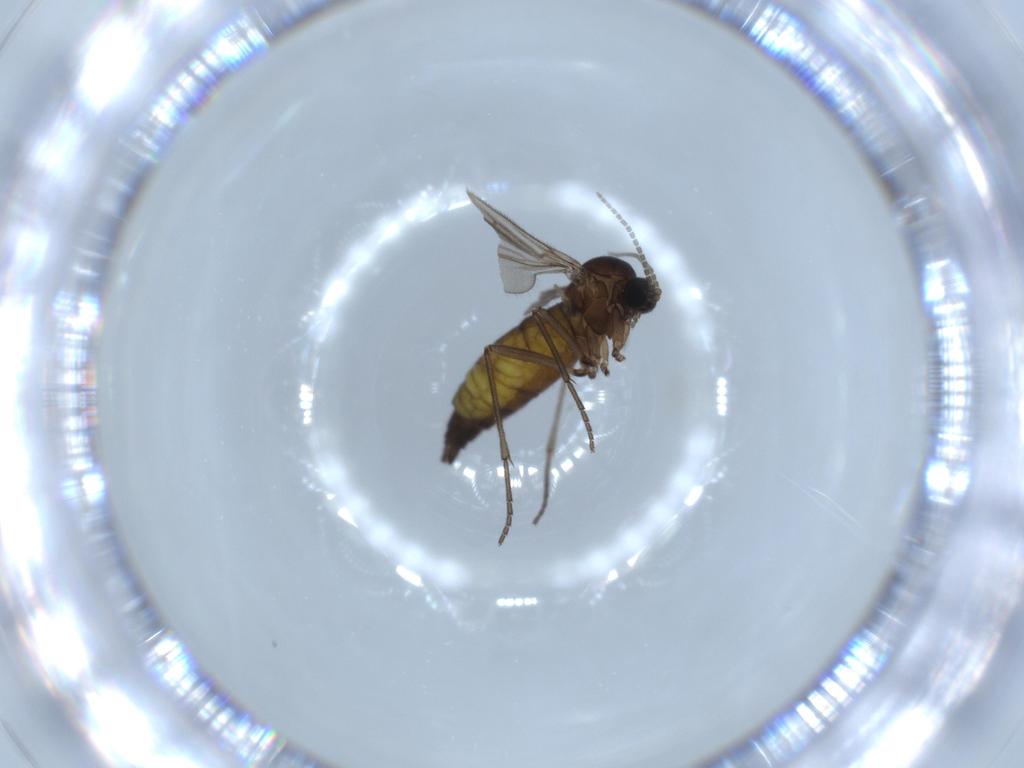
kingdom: Animalia
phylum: Arthropoda
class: Insecta
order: Diptera
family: Sciaridae
